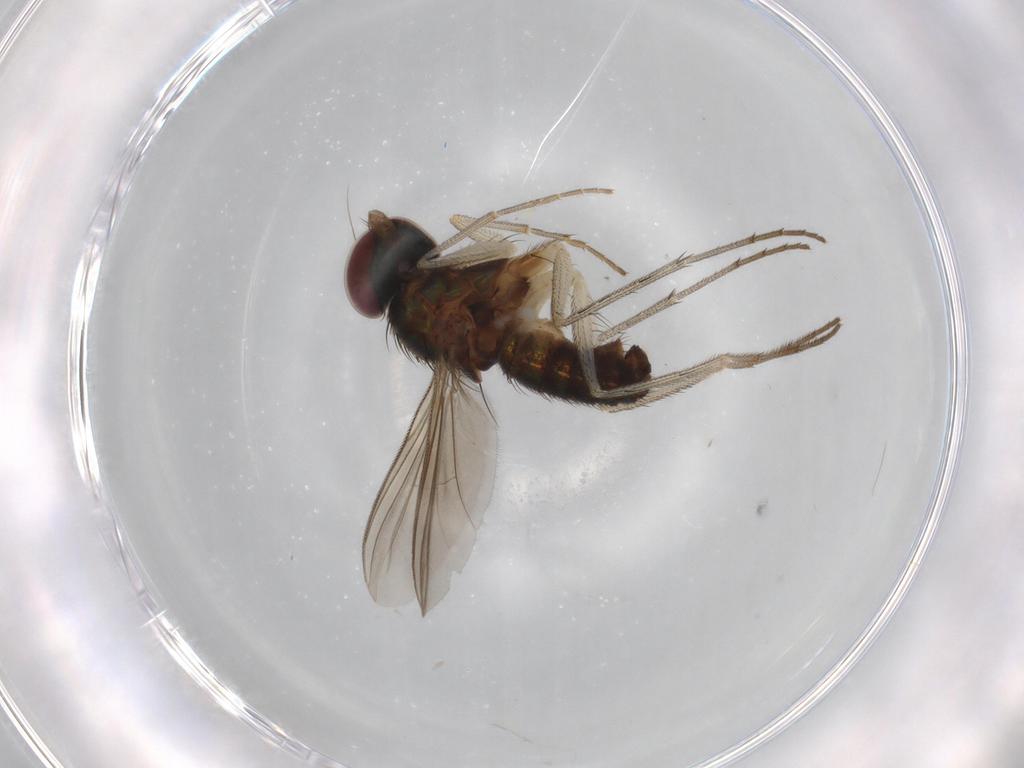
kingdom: Animalia
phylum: Arthropoda
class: Insecta
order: Diptera
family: Dolichopodidae
